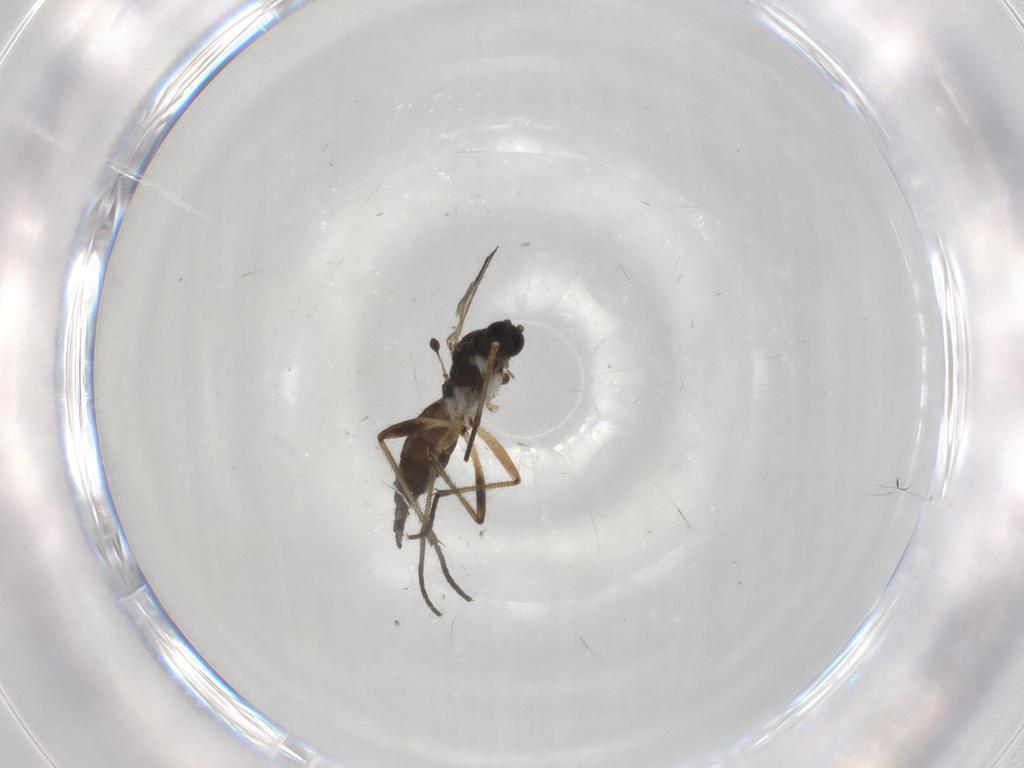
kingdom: Animalia
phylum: Arthropoda
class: Insecta
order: Diptera
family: Sciaridae
